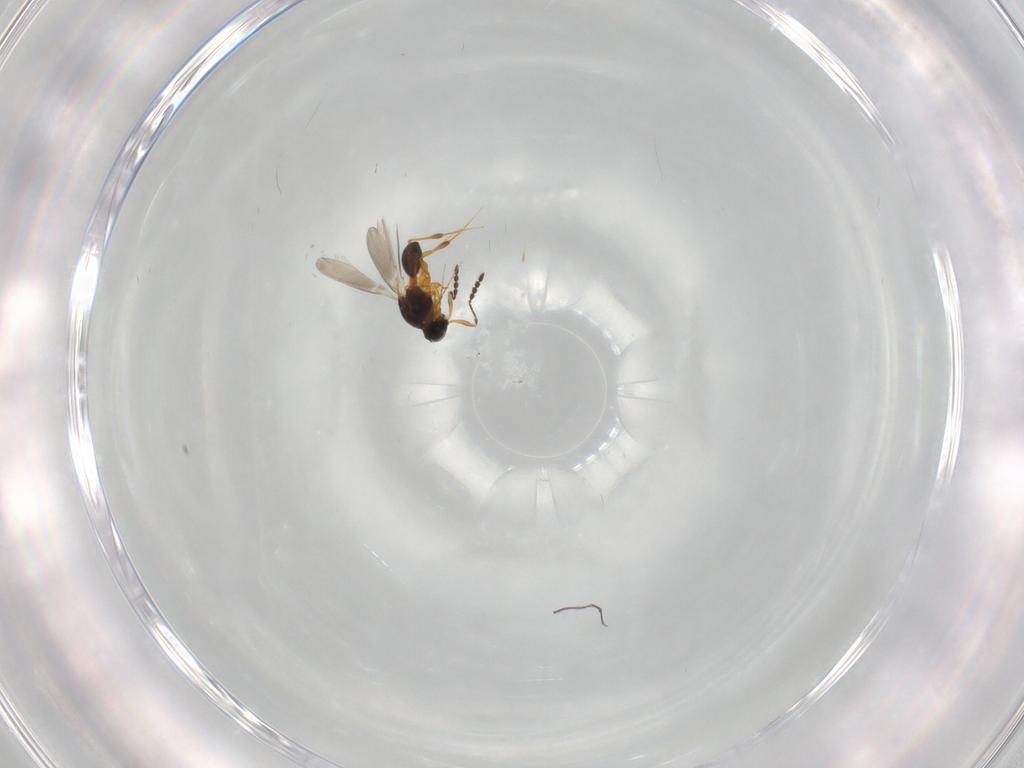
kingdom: Animalia
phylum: Arthropoda
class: Insecta
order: Hymenoptera
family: Platygastridae
